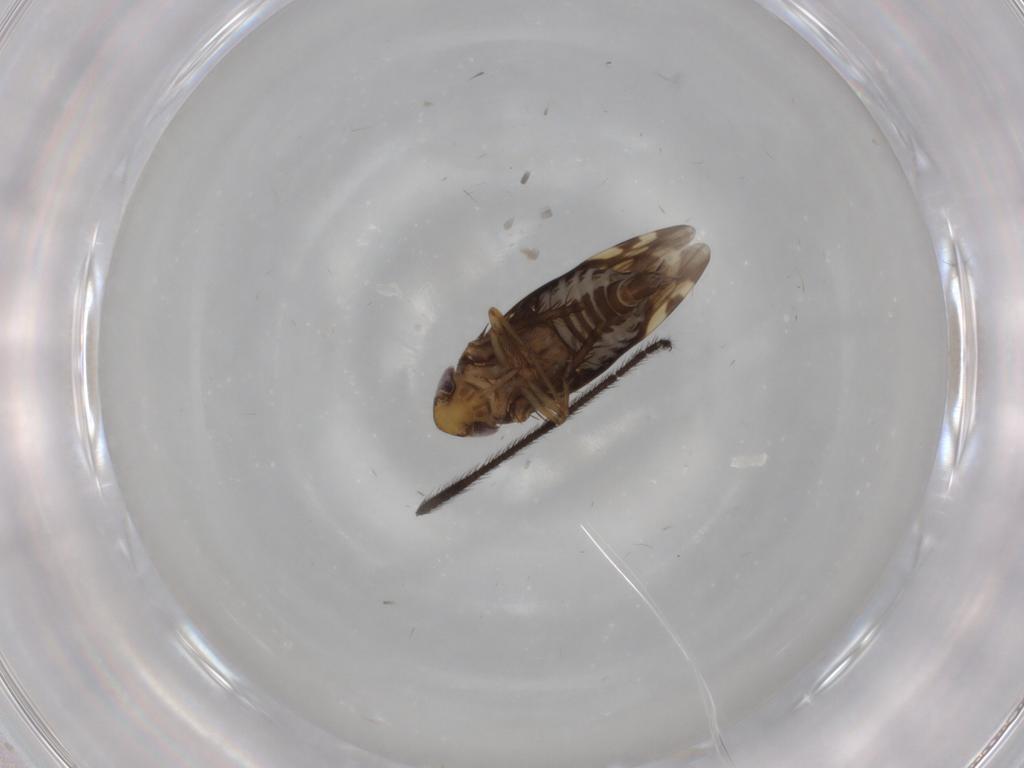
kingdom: Animalia
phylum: Arthropoda
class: Insecta
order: Hemiptera
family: Cicadellidae
